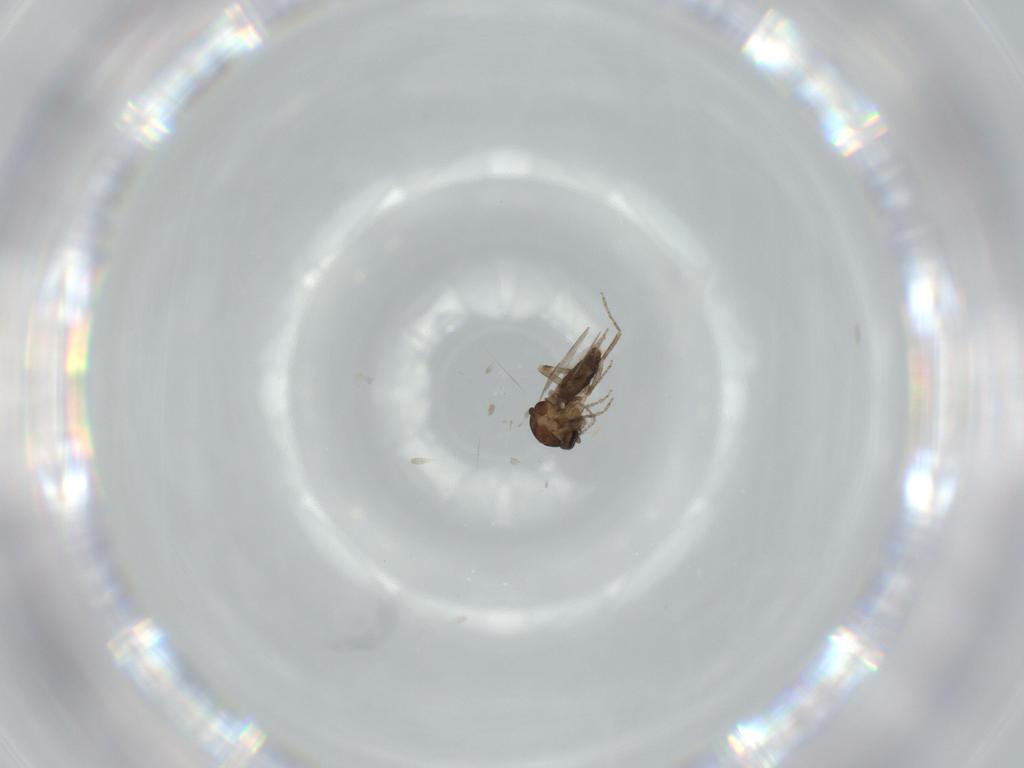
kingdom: Animalia
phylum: Arthropoda
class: Insecta
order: Diptera
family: Ceratopogonidae
